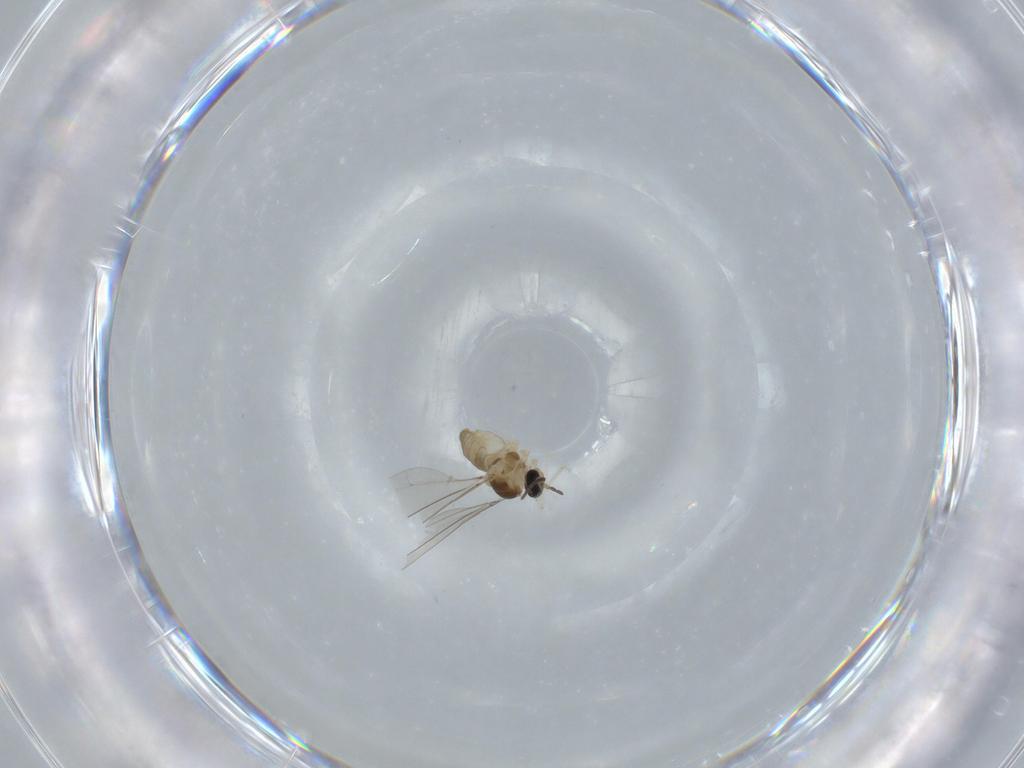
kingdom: Animalia
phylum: Arthropoda
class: Insecta
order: Diptera
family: Cecidomyiidae
